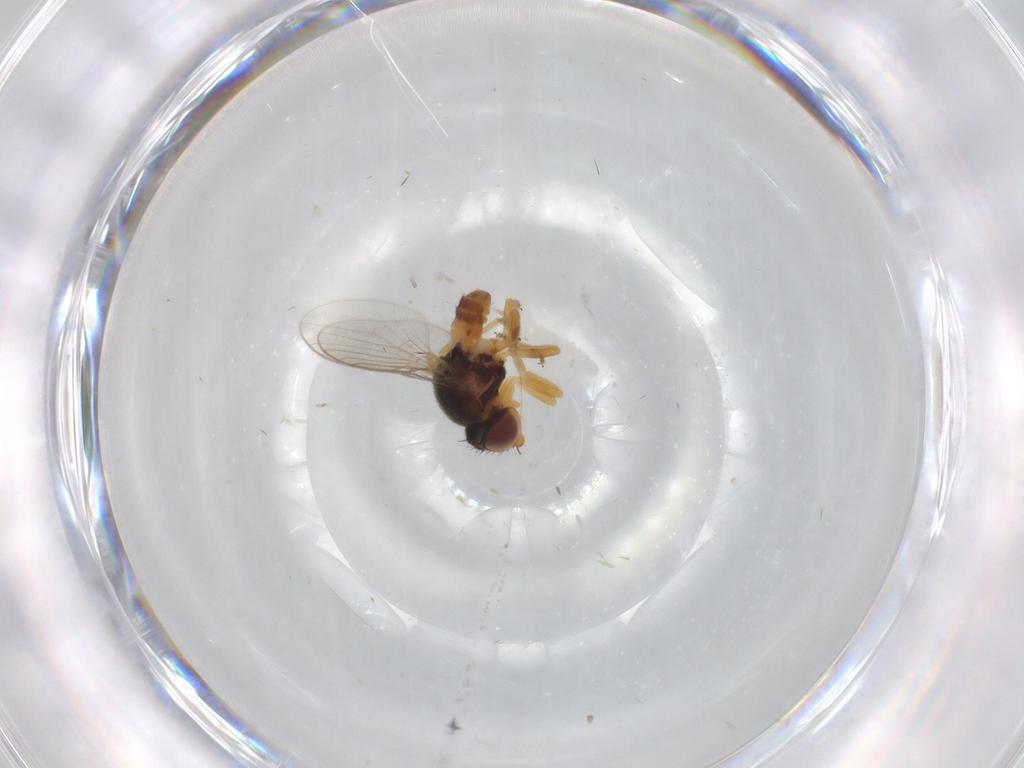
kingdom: Animalia
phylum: Arthropoda
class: Insecta
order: Diptera
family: Chloropidae
